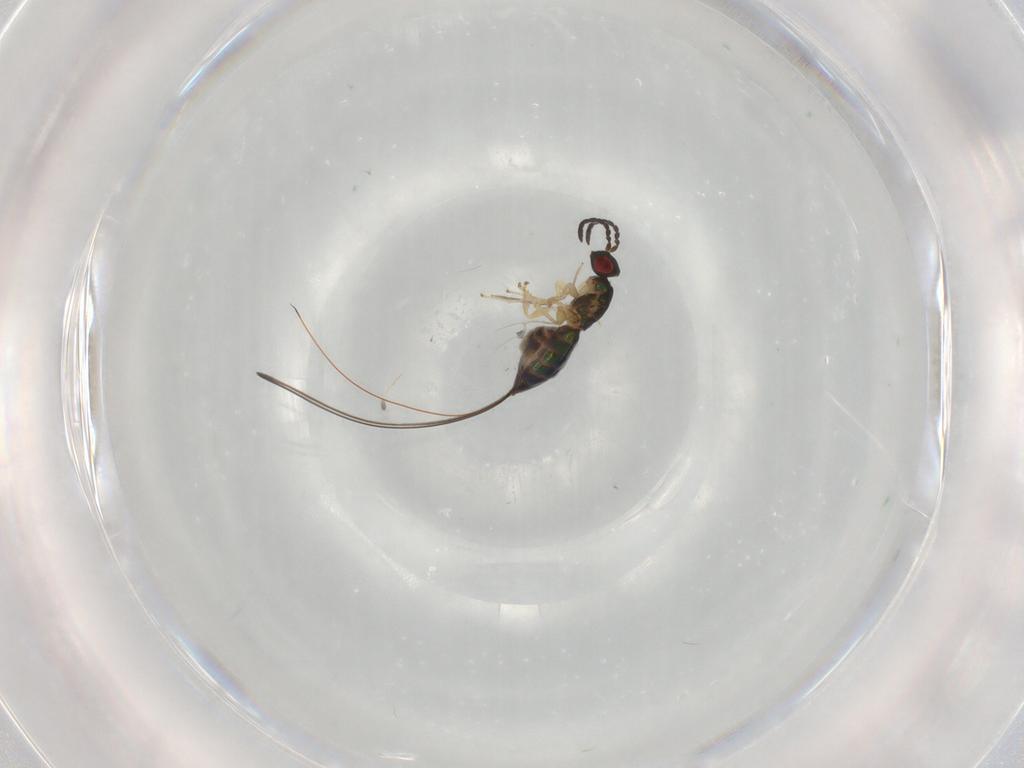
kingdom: Animalia
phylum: Arthropoda
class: Insecta
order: Hymenoptera
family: Pteromalidae
